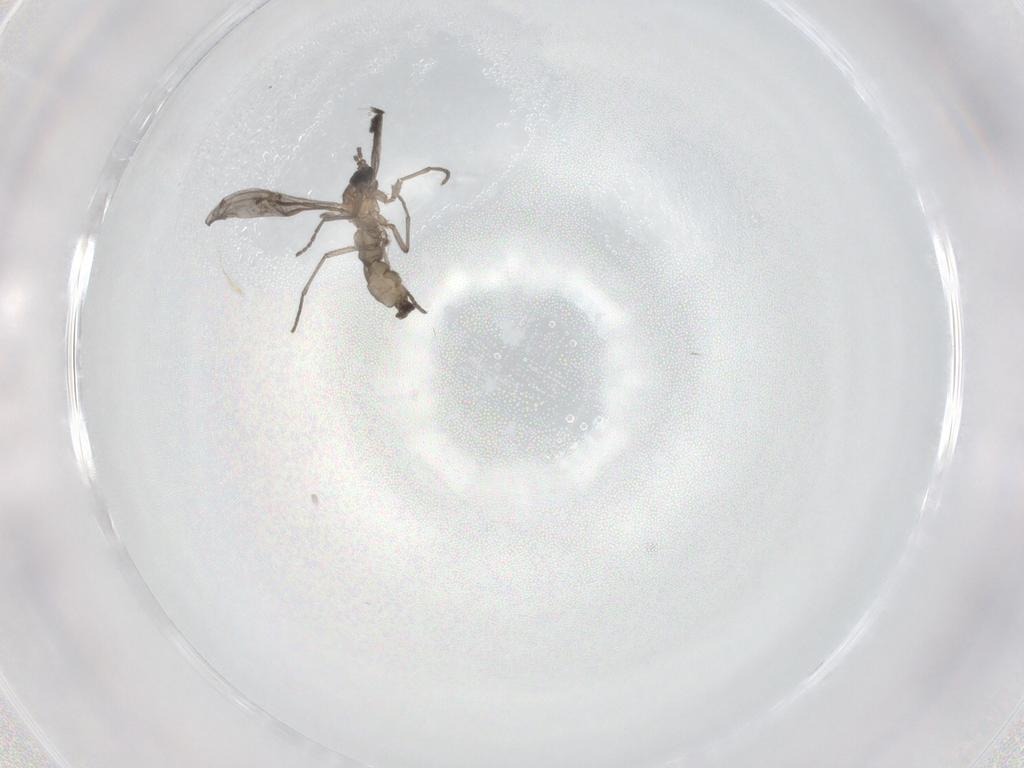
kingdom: Animalia
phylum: Arthropoda
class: Insecta
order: Diptera
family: Sciaridae
